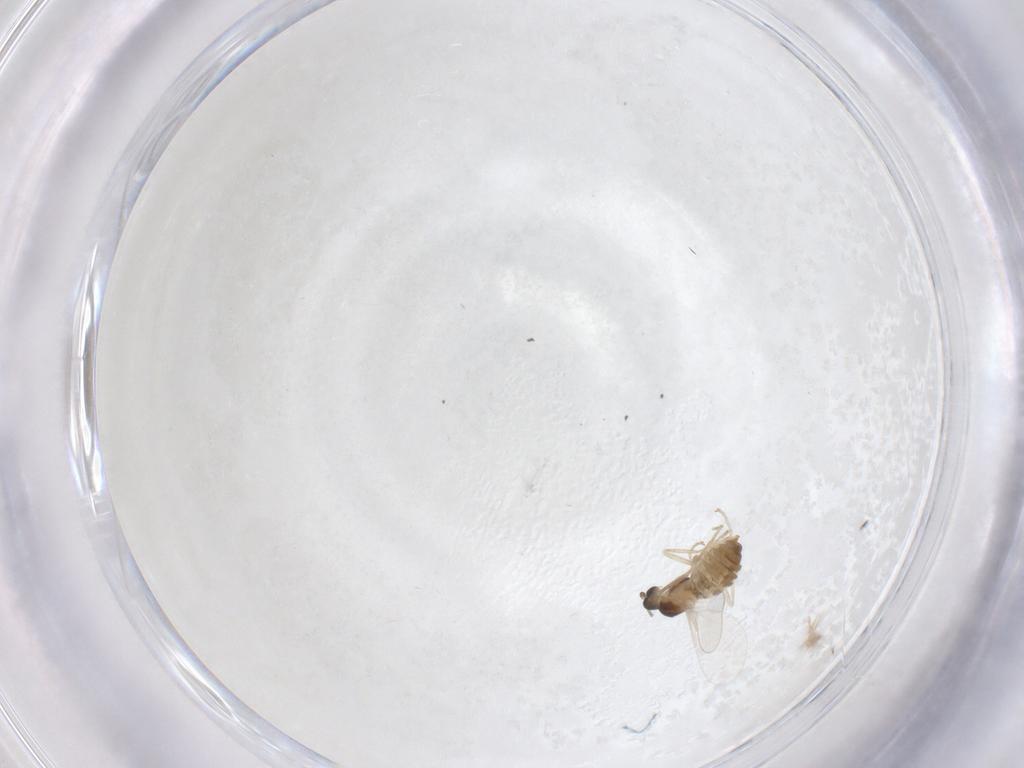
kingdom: Animalia
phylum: Arthropoda
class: Insecta
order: Diptera
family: Cecidomyiidae
